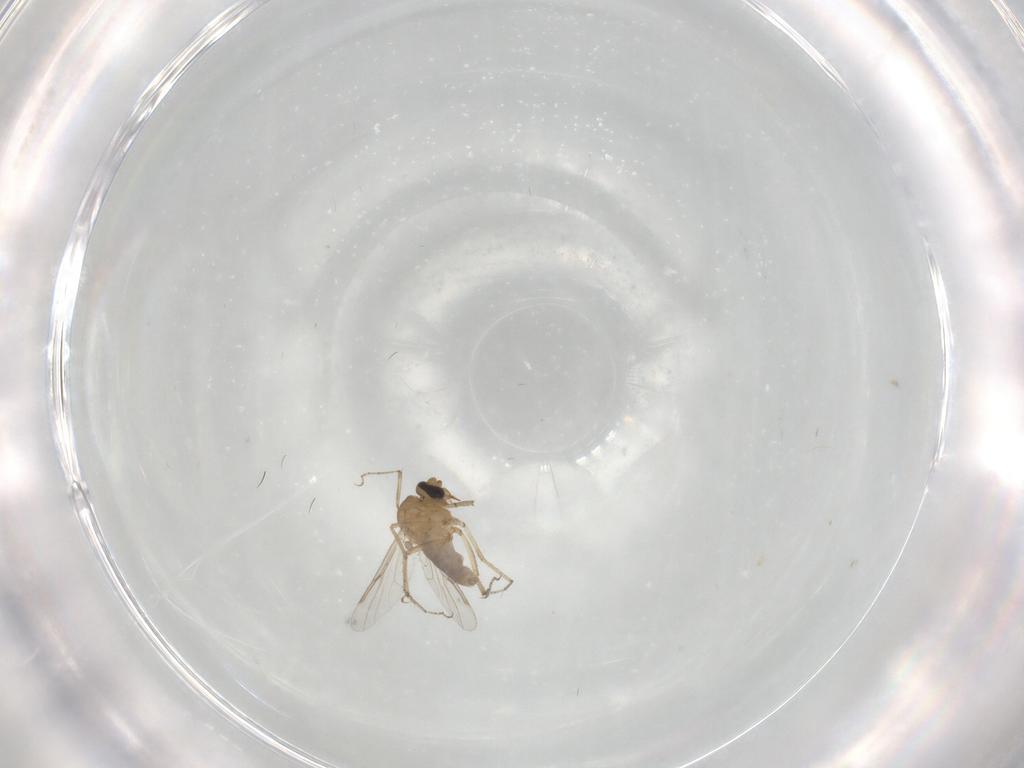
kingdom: Animalia
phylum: Arthropoda
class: Insecta
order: Diptera
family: Ceratopogonidae
